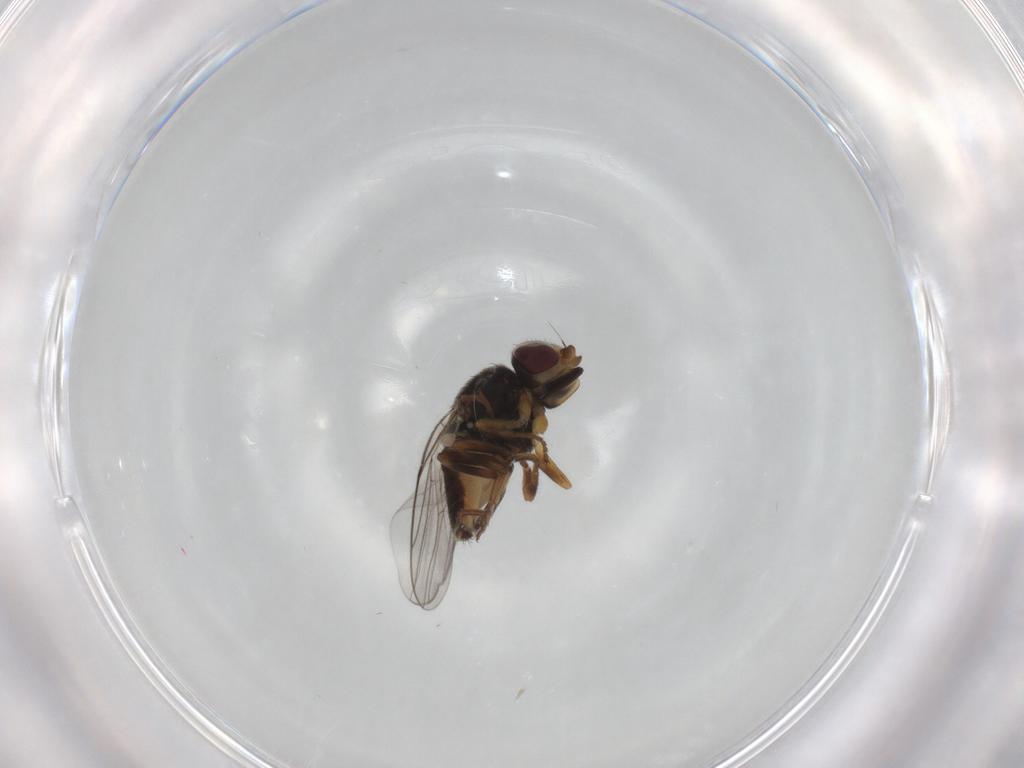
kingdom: Animalia
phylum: Arthropoda
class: Insecta
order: Diptera
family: Chloropidae
